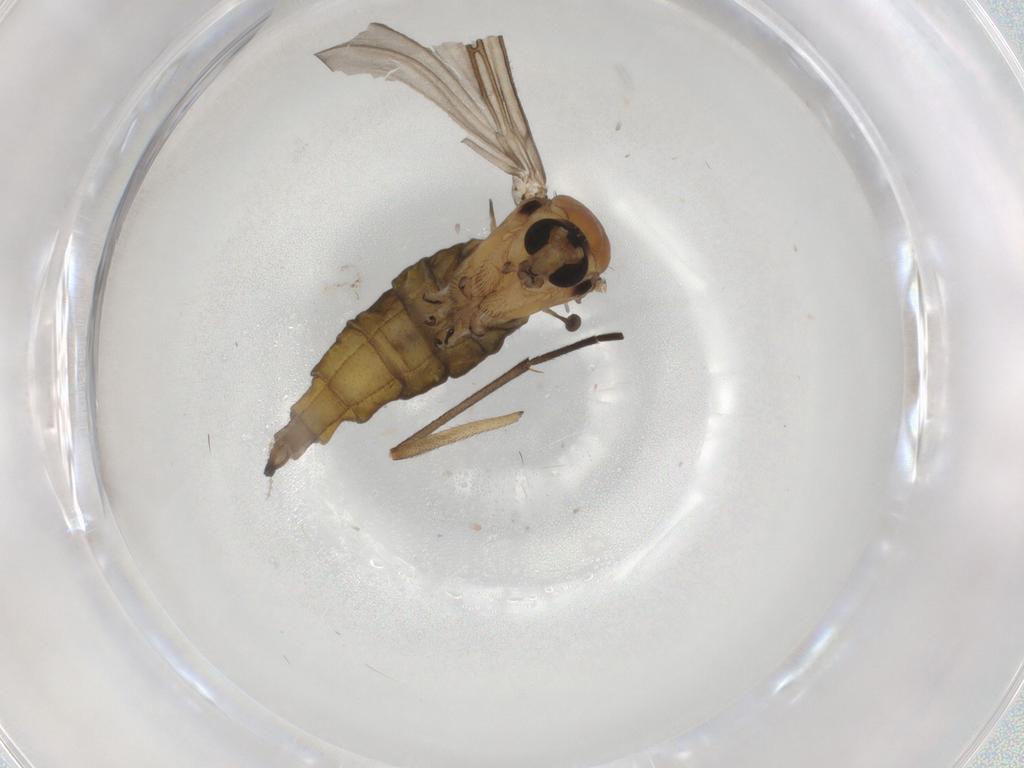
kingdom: Animalia
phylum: Arthropoda
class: Insecta
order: Diptera
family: Sciaridae
